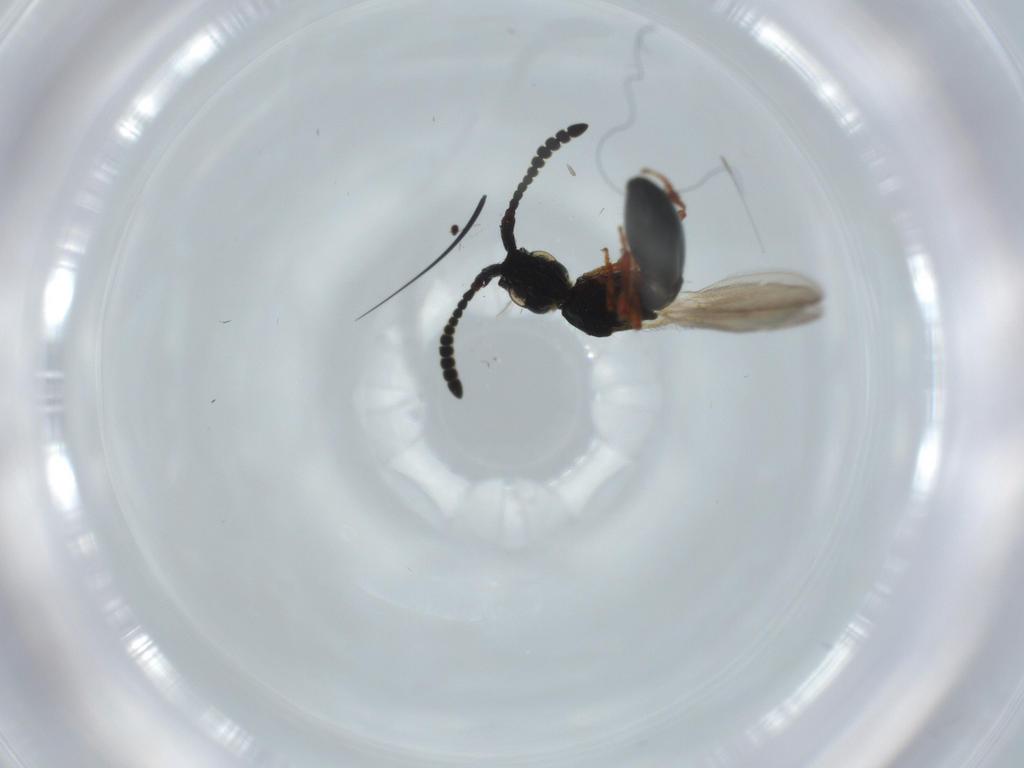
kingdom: Animalia
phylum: Arthropoda
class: Insecta
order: Hymenoptera
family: Diapriidae
